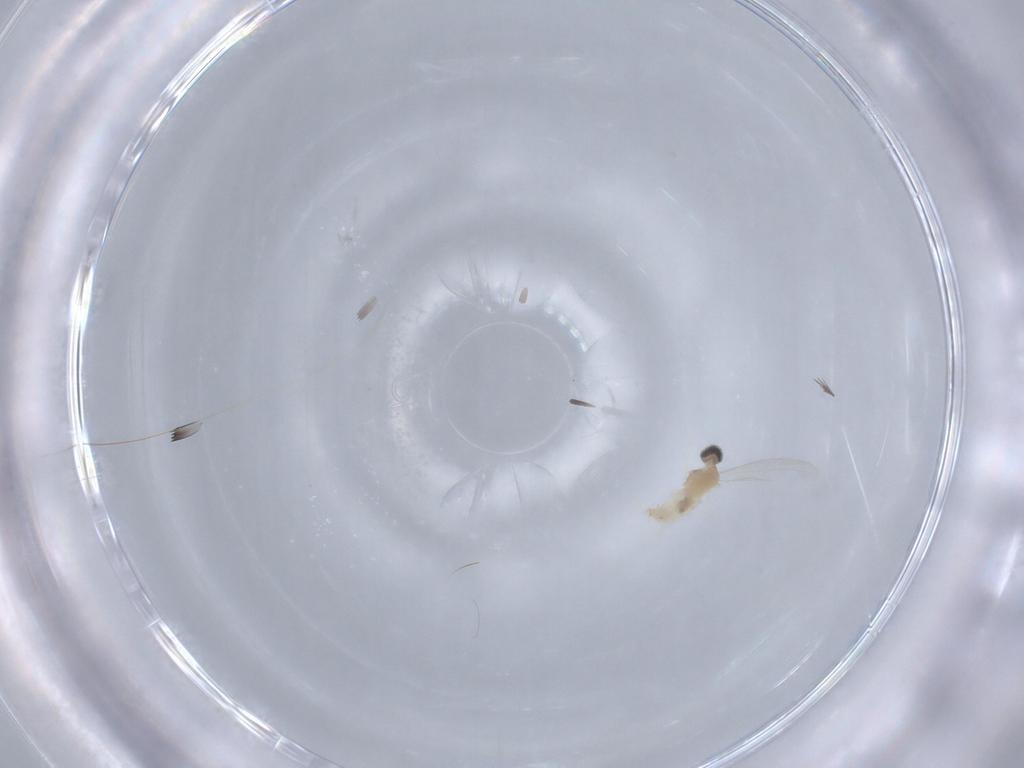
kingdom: Animalia
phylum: Arthropoda
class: Insecta
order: Diptera
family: Cecidomyiidae
